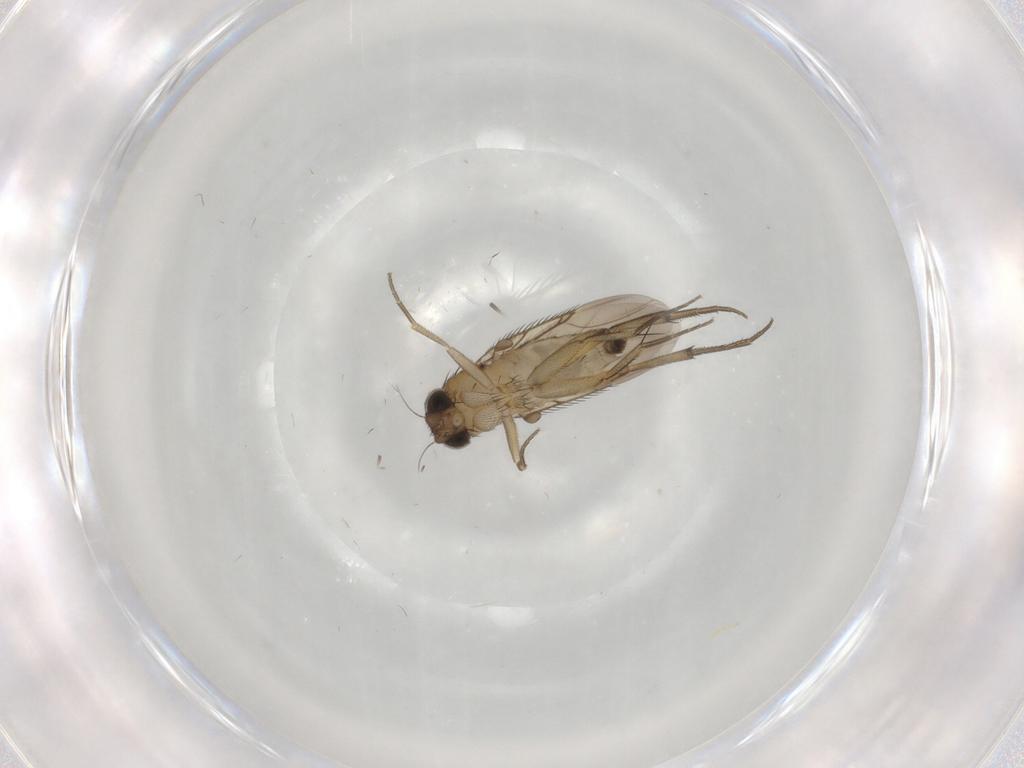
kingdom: Animalia
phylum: Arthropoda
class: Insecta
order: Diptera
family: Phoridae
